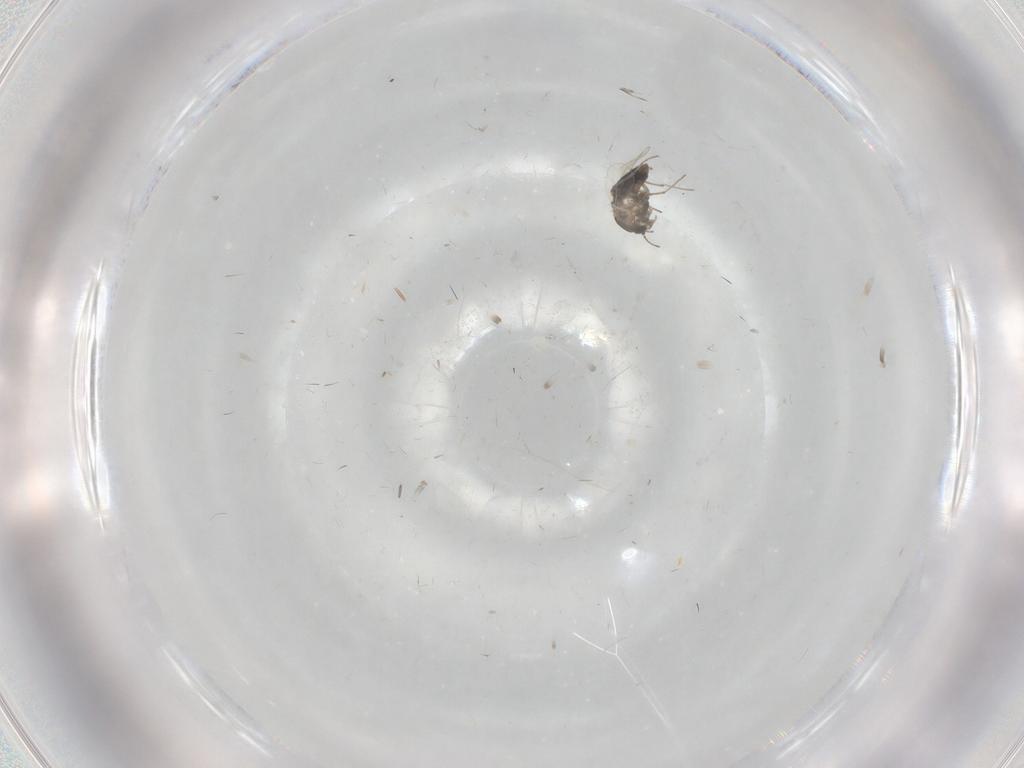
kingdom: Animalia
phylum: Arthropoda
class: Insecta
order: Diptera
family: Chironomidae
